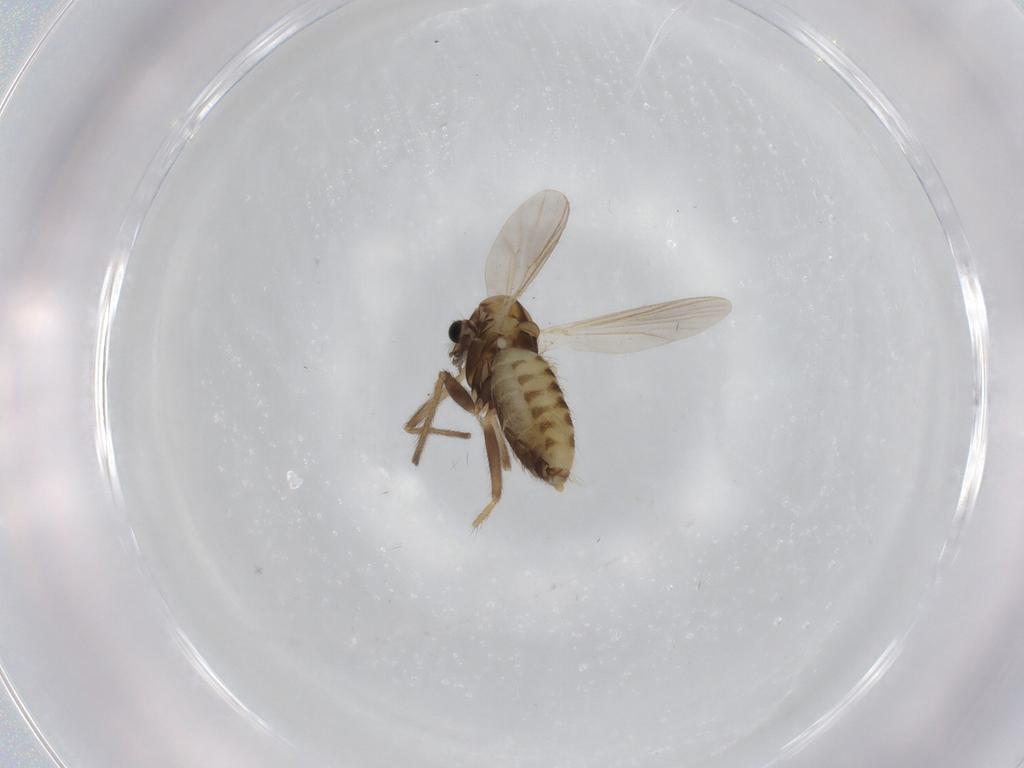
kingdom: Animalia
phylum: Arthropoda
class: Insecta
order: Diptera
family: Chironomidae
